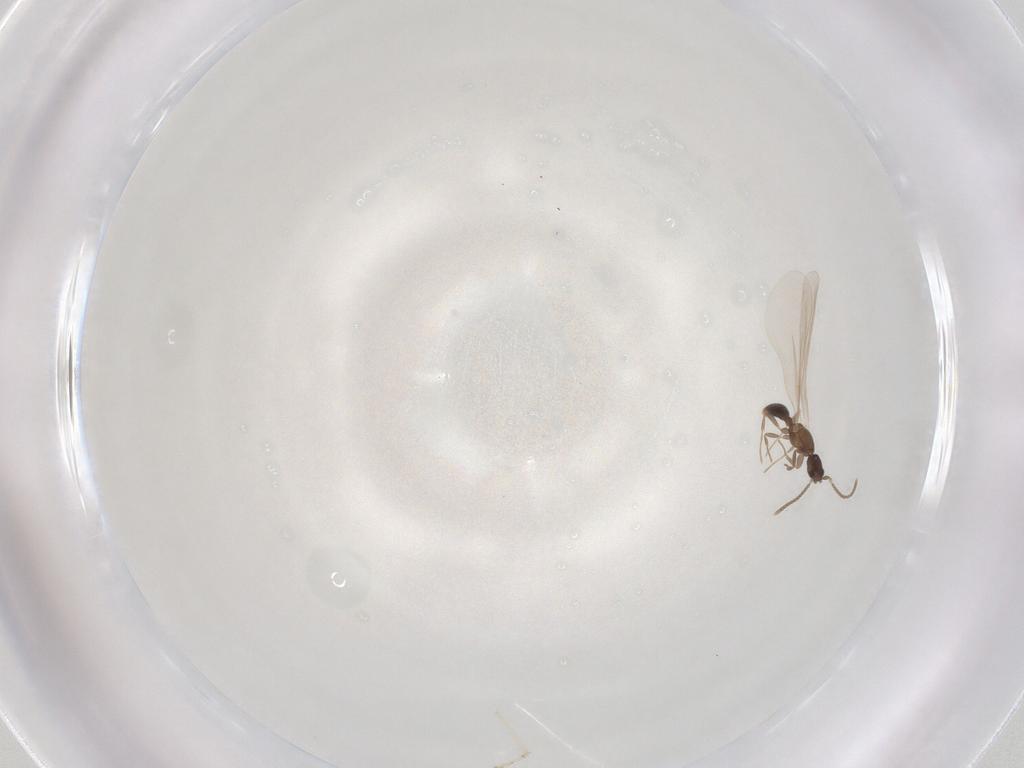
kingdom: Animalia
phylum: Arthropoda
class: Insecta
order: Hymenoptera
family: Formicidae
